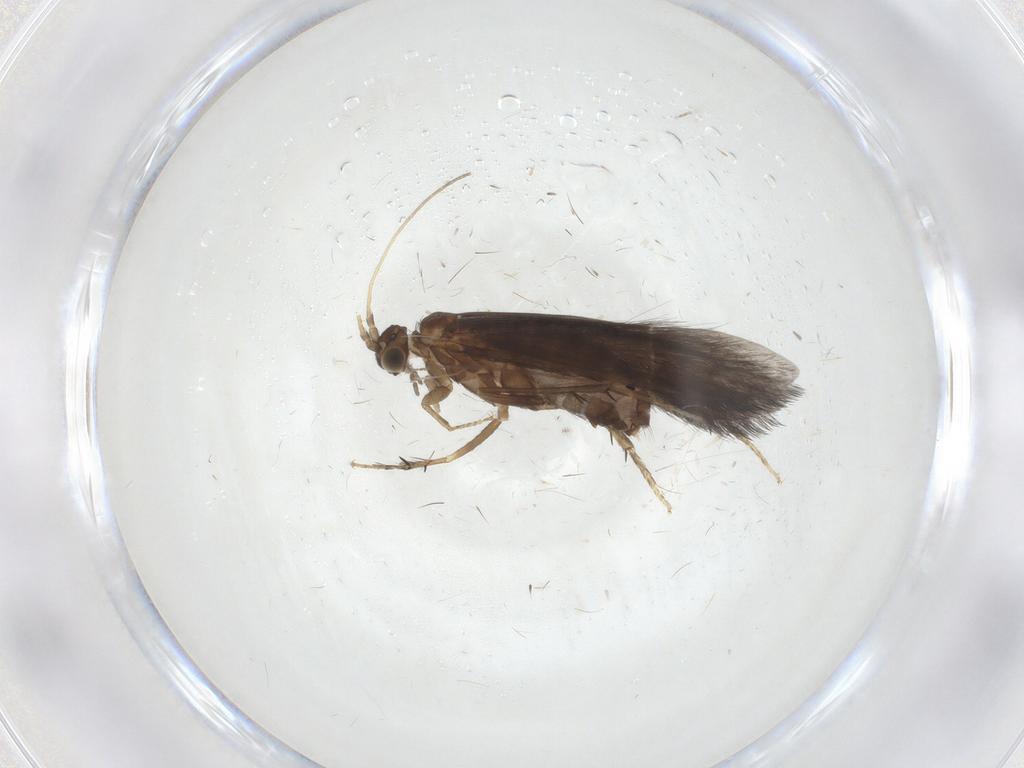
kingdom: Animalia
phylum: Arthropoda
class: Insecta
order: Trichoptera
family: Glossosomatidae
